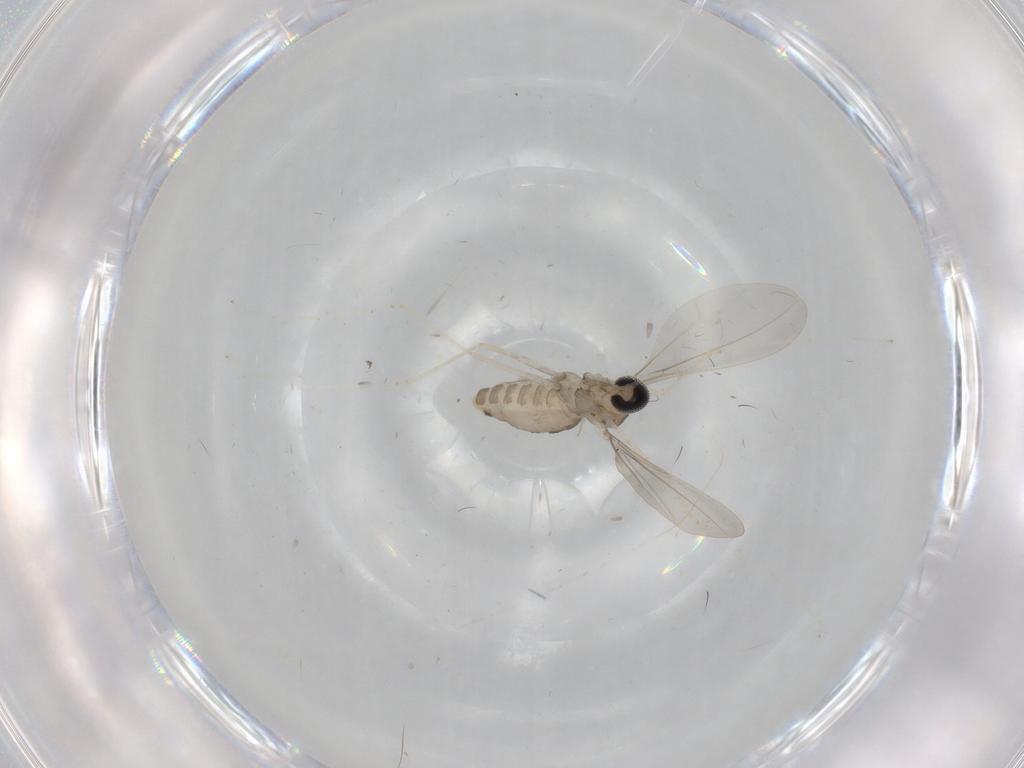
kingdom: Animalia
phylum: Arthropoda
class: Insecta
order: Diptera
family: Cecidomyiidae
